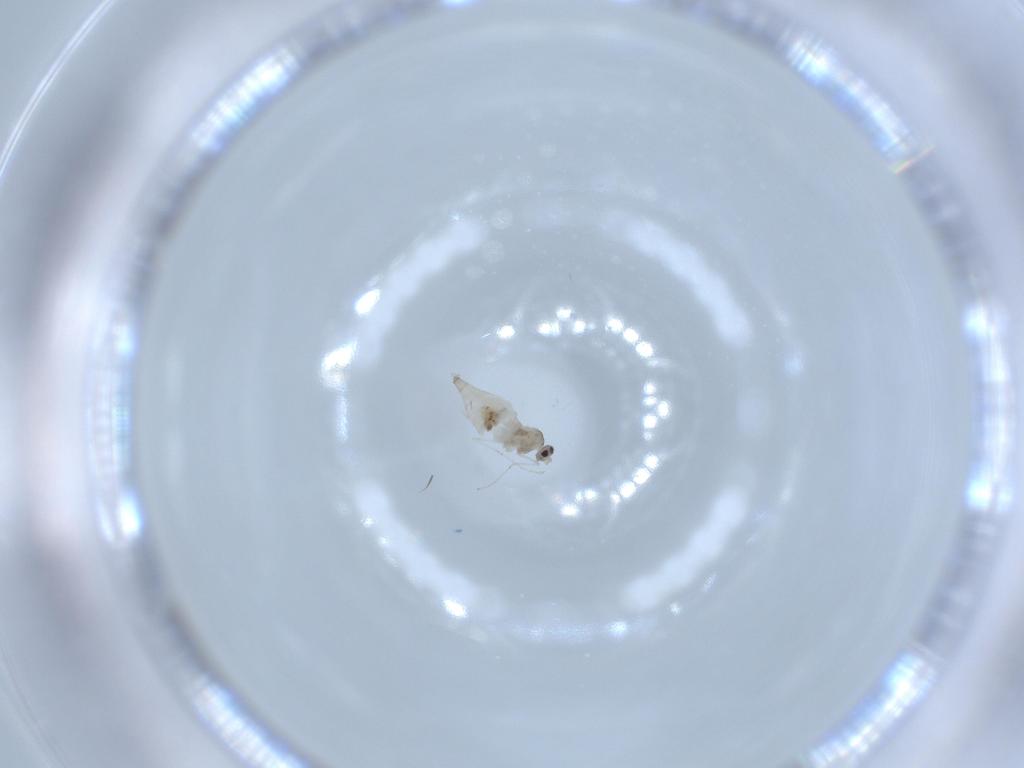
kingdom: Animalia
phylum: Arthropoda
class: Insecta
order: Diptera
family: Cecidomyiidae
